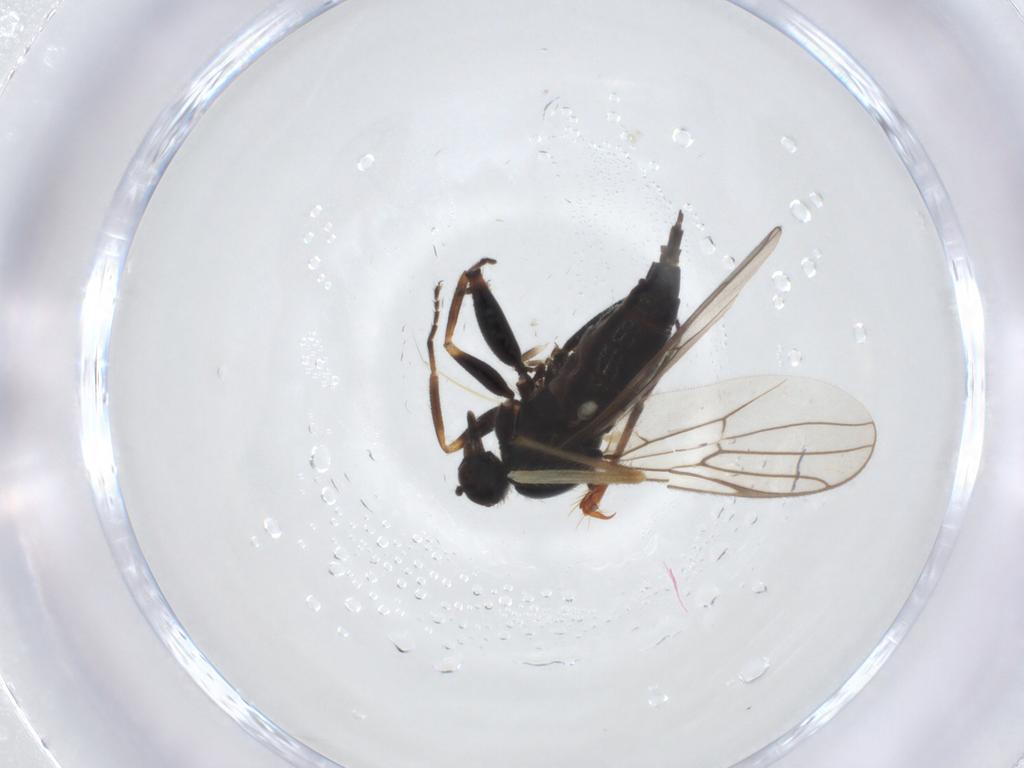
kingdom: Animalia
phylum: Arthropoda
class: Insecta
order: Diptera
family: Hybotidae
